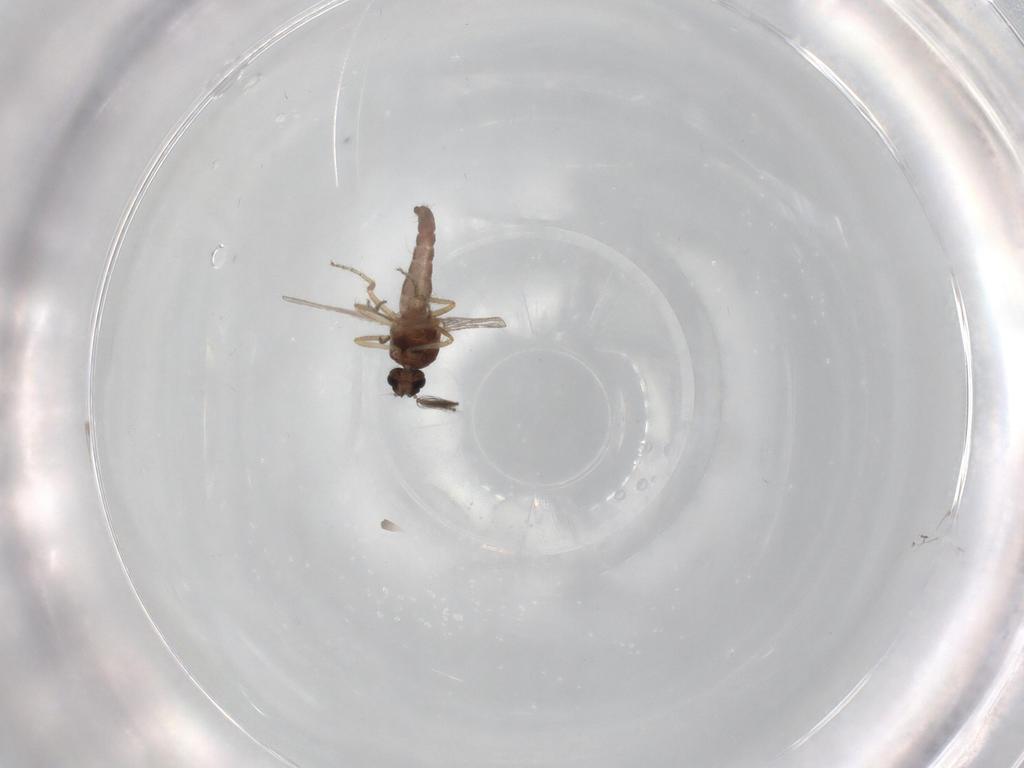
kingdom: Animalia
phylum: Arthropoda
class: Insecta
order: Diptera
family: Ceratopogonidae
